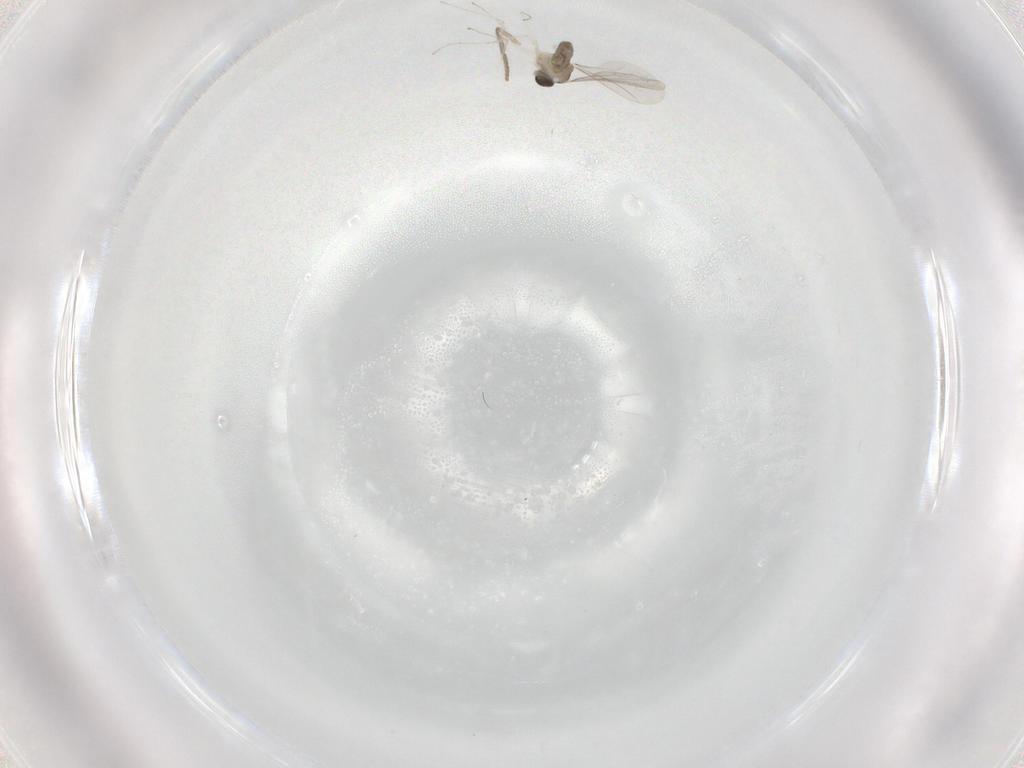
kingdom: Animalia
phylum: Arthropoda
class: Insecta
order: Diptera
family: Cecidomyiidae
